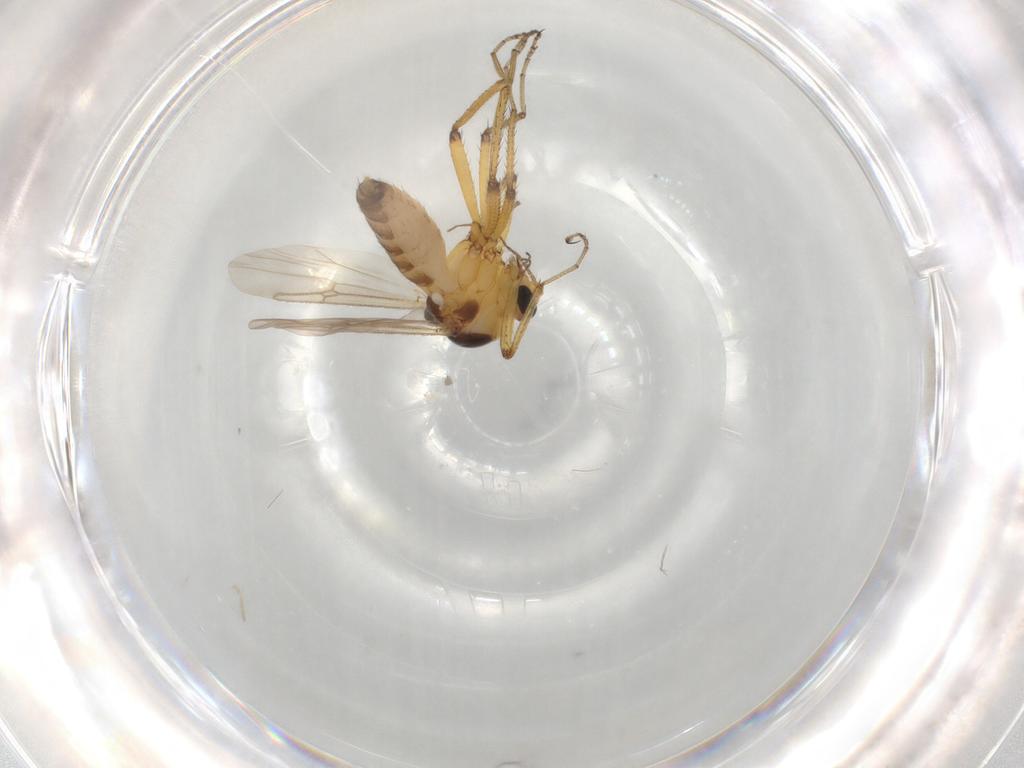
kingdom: Animalia
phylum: Arthropoda
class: Insecta
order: Diptera
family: Ceratopogonidae
